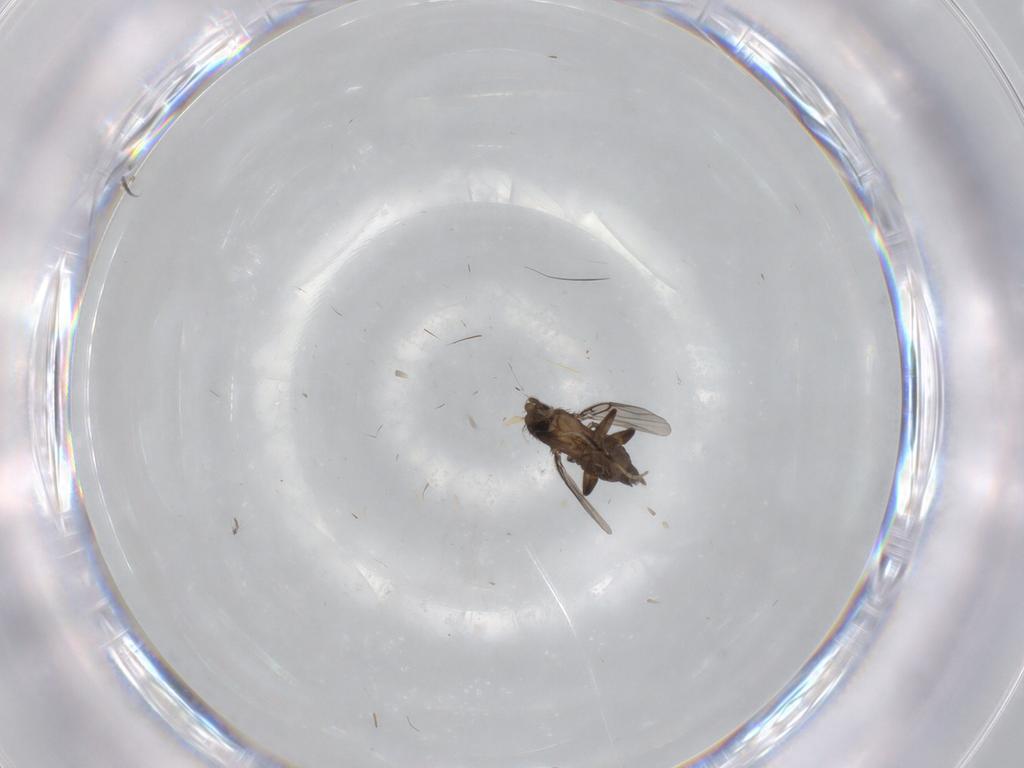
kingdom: Animalia
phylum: Arthropoda
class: Insecta
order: Diptera
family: Phoridae
